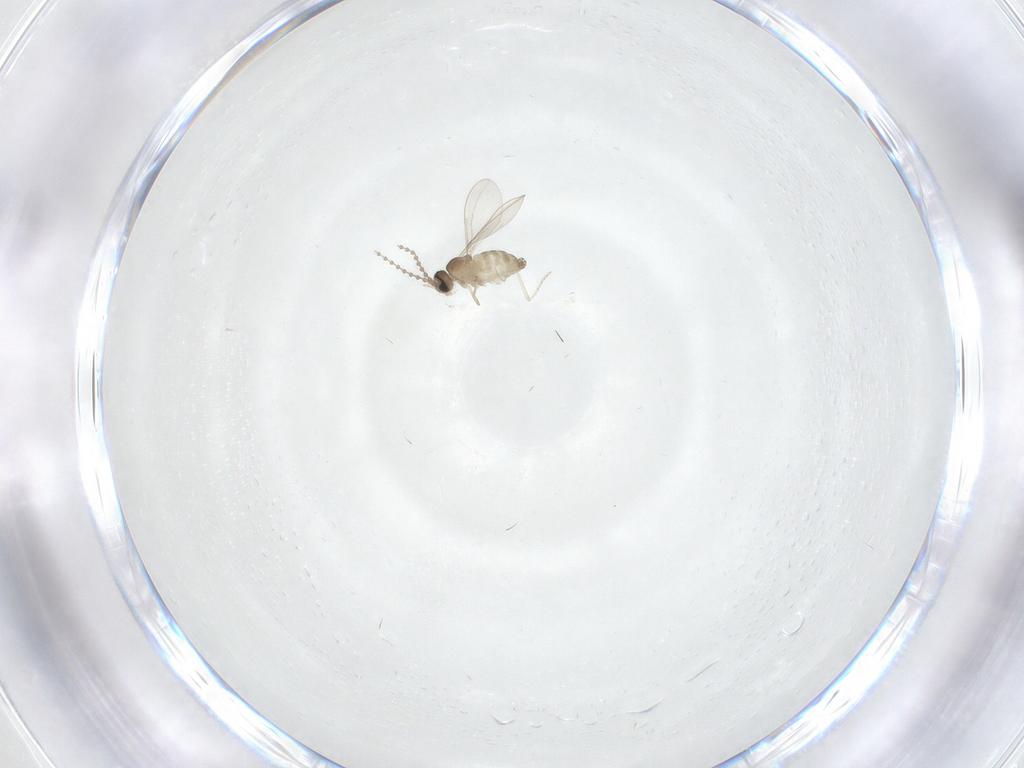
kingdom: Animalia
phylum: Arthropoda
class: Insecta
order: Diptera
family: Cecidomyiidae
